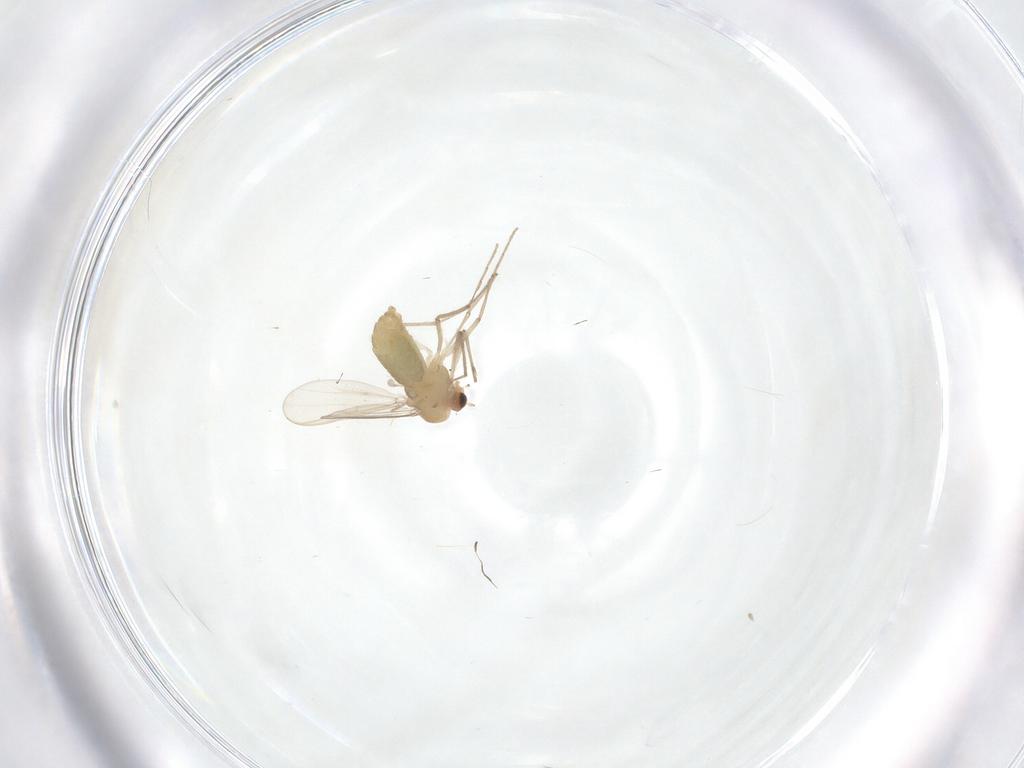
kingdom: Animalia
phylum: Arthropoda
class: Insecta
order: Diptera
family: Chironomidae
